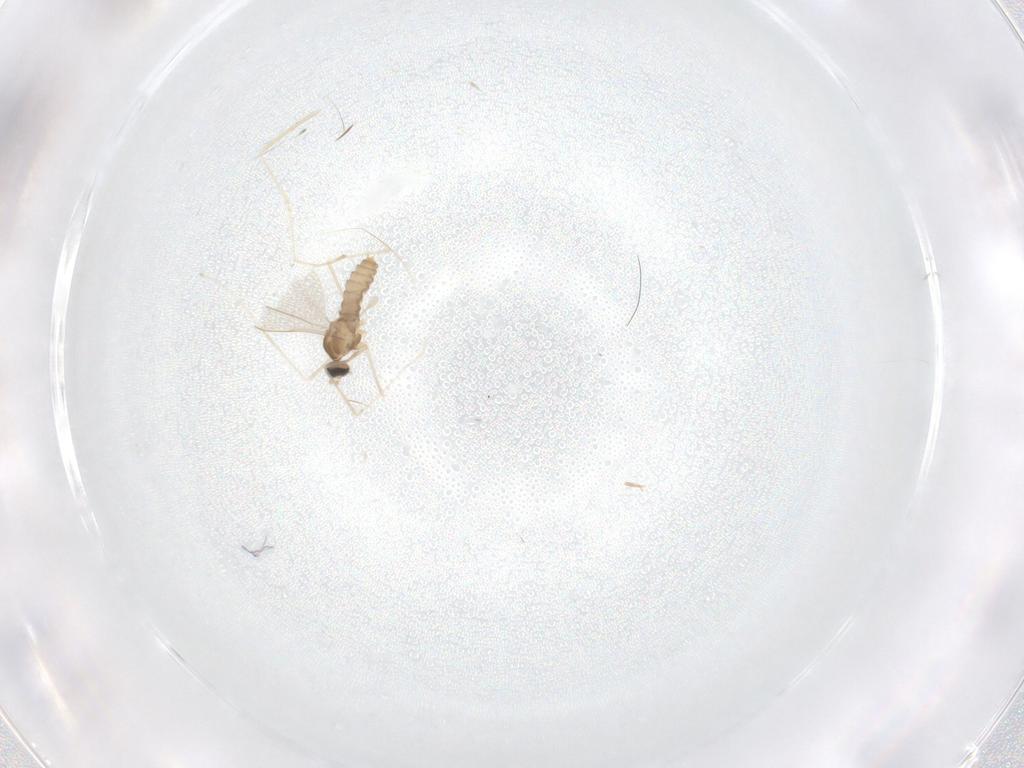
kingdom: Animalia
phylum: Arthropoda
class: Insecta
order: Diptera
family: Cecidomyiidae
